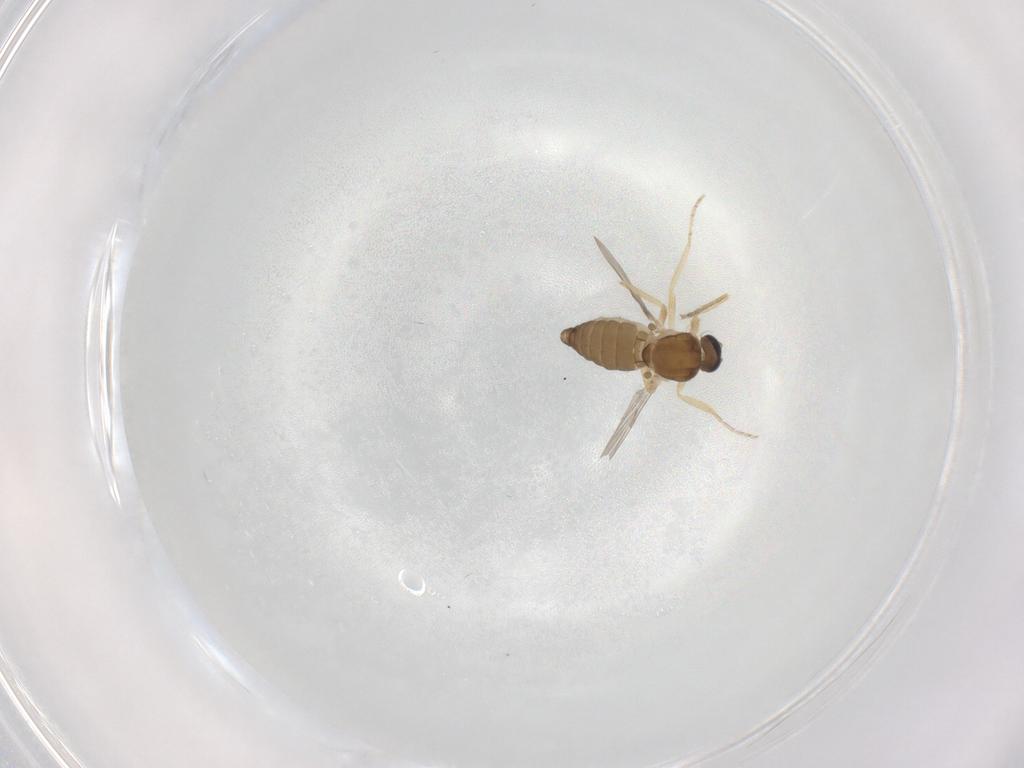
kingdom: Animalia
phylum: Arthropoda
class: Insecta
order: Diptera
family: Ceratopogonidae
